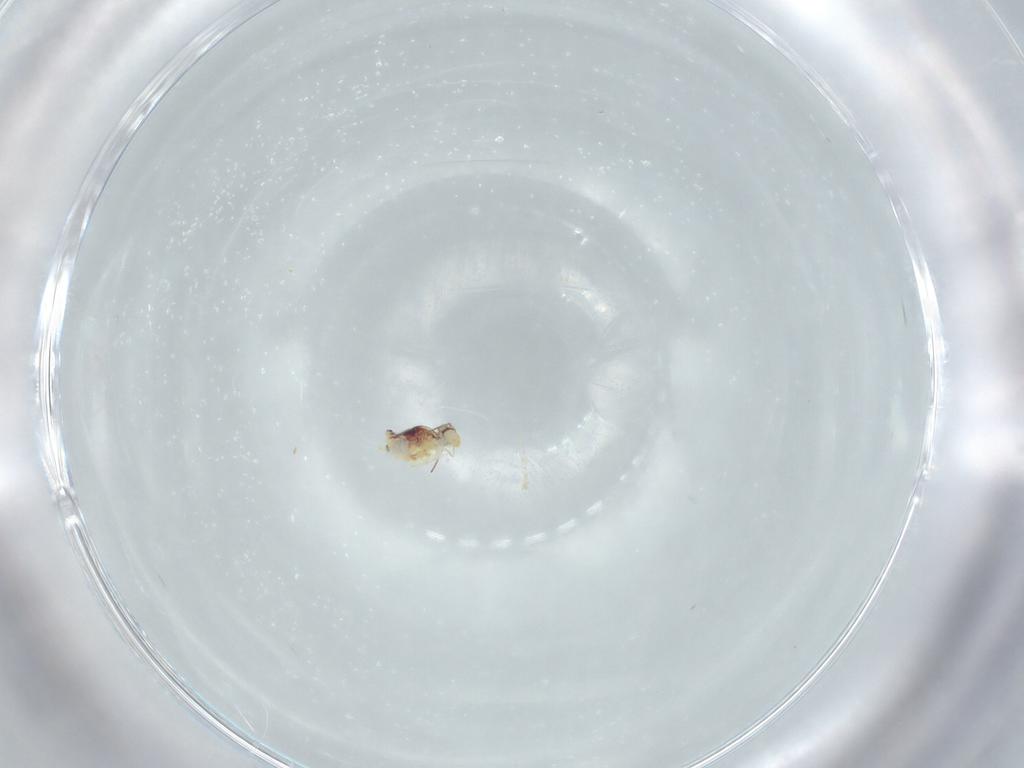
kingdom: Animalia
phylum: Arthropoda
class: Collembola
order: Symphypleona
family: Bourletiellidae
